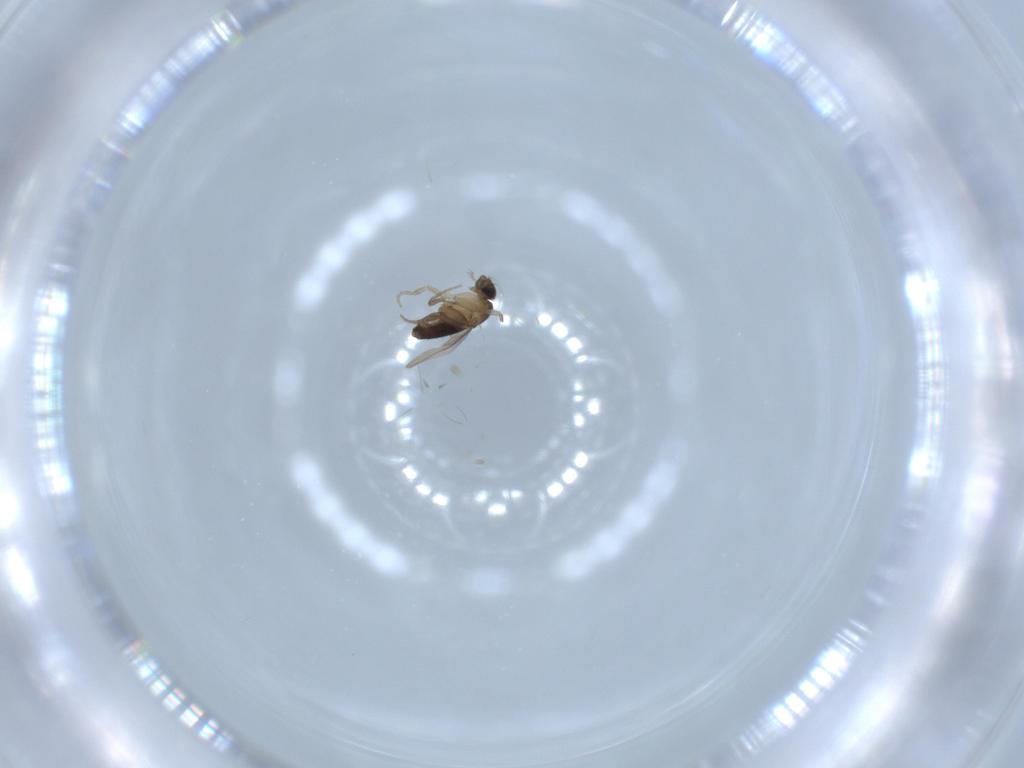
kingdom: Animalia
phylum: Arthropoda
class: Insecta
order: Diptera
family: Phoridae
